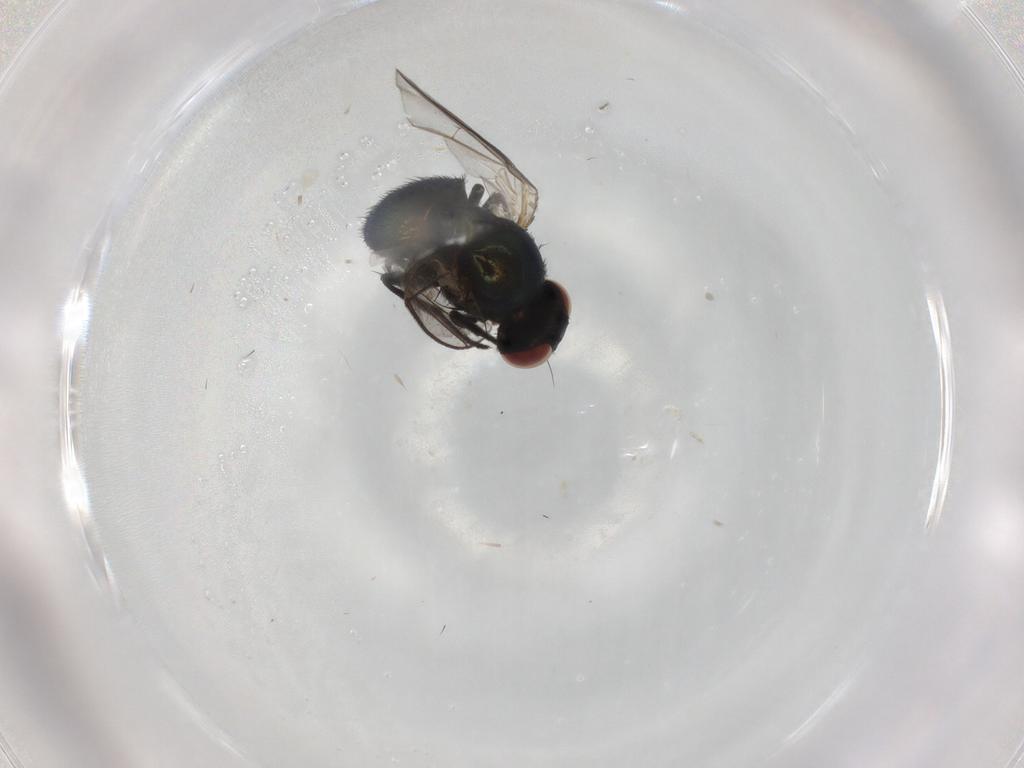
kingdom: Animalia
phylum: Arthropoda
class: Insecta
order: Diptera
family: Agromyzidae
